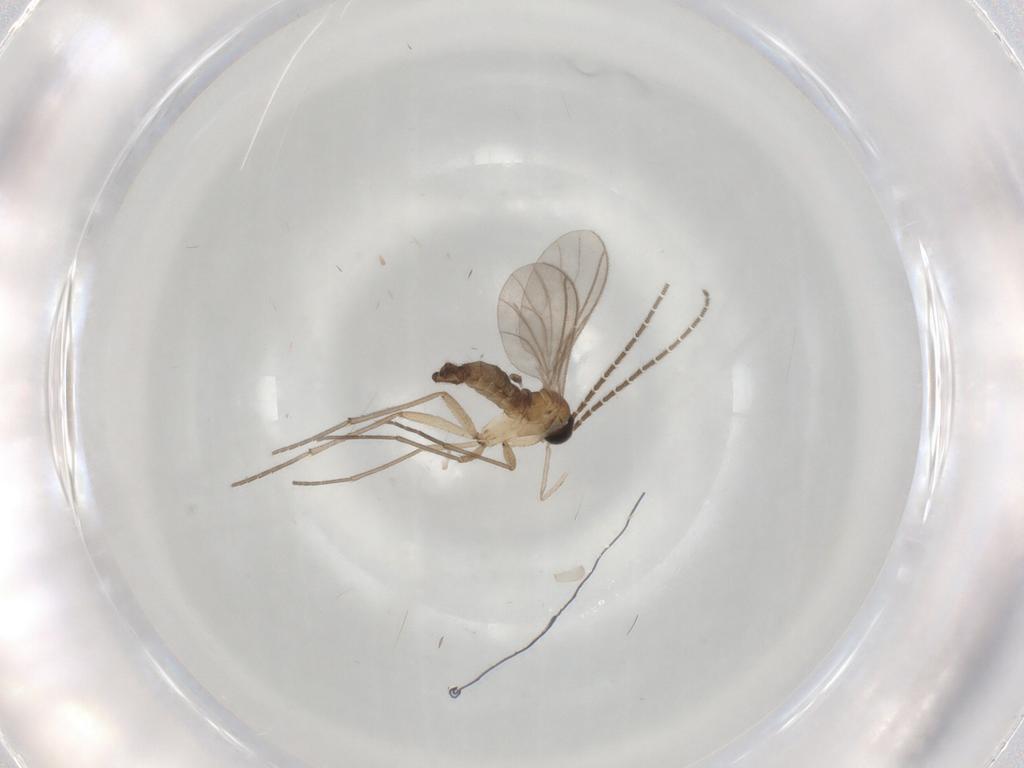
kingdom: Animalia
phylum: Arthropoda
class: Insecta
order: Diptera
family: Sciaridae
